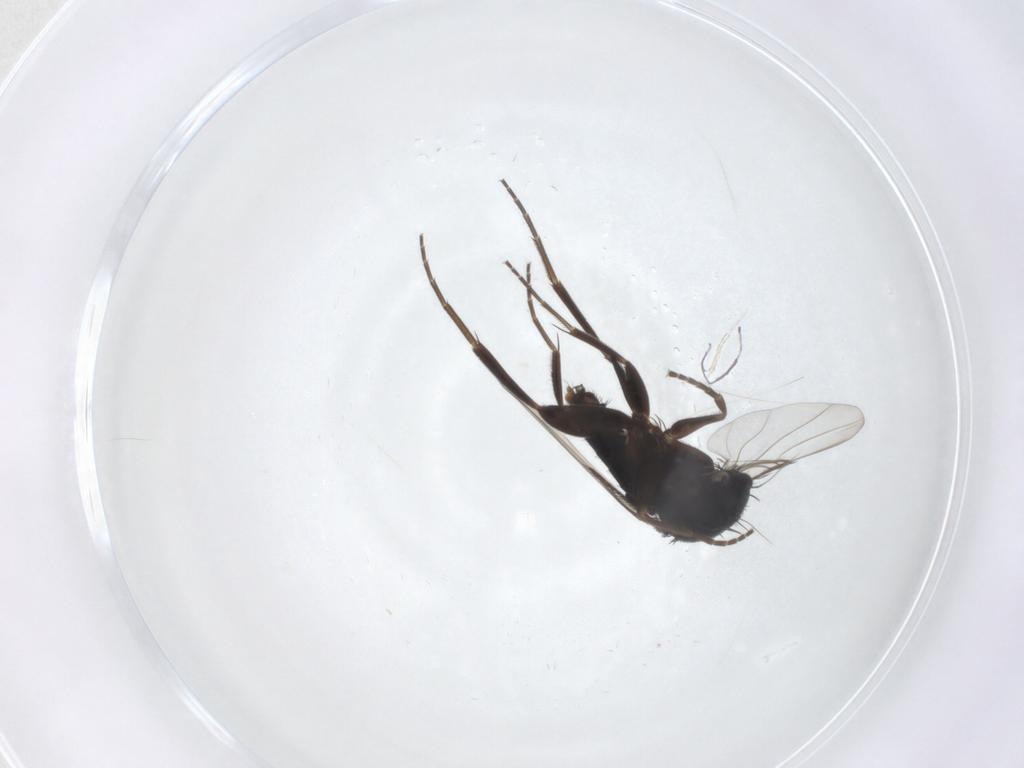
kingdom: Animalia
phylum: Arthropoda
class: Insecta
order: Diptera
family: Phoridae
